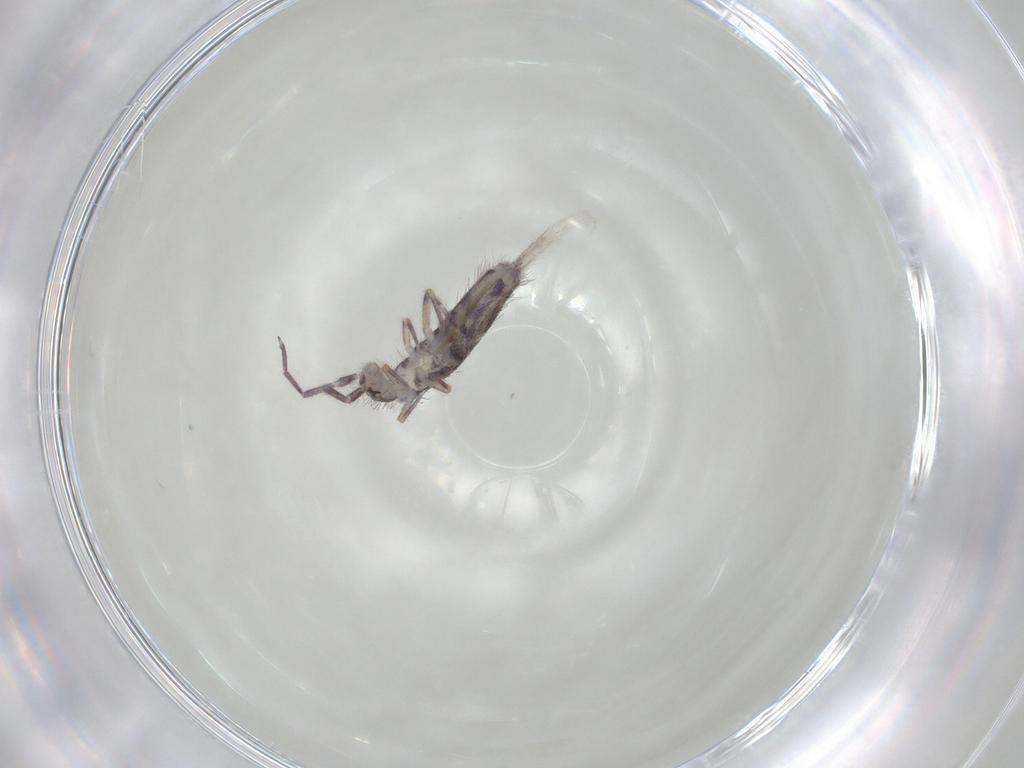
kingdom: Animalia
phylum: Arthropoda
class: Collembola
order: Entomobryomorpha
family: Entomobryidae
